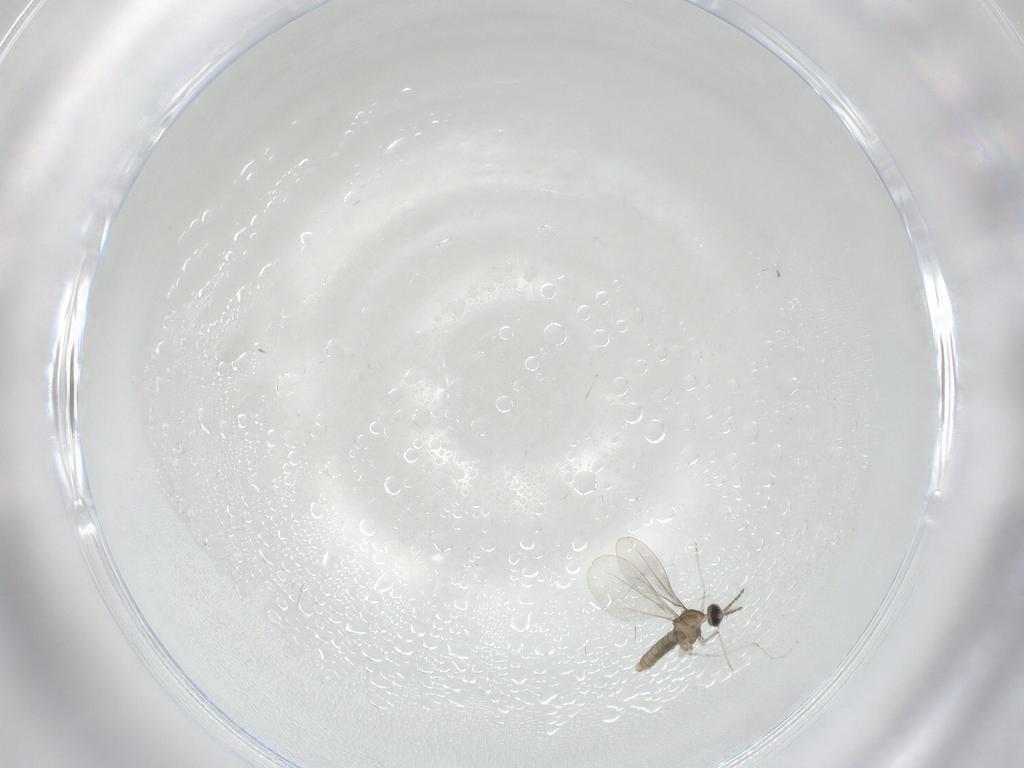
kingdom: Animalia
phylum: Arthropoda
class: Insecta
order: Diptera
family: Cecidomyiidae
